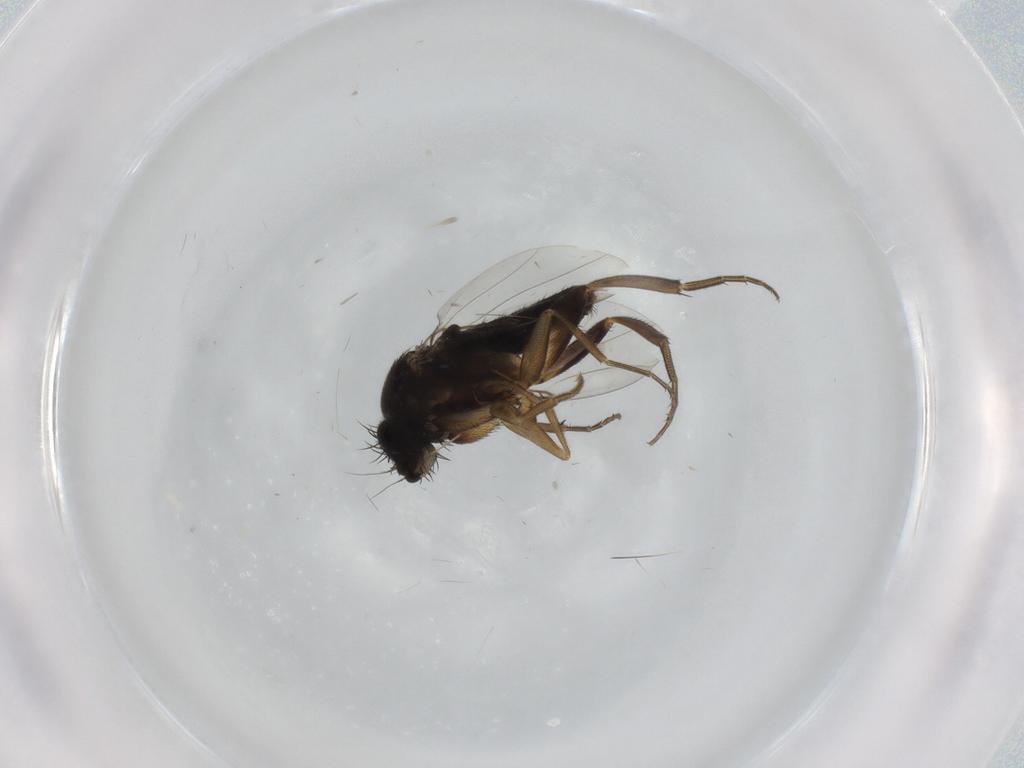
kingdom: Animalia
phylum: Arthropoda
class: Insecta
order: Diptera
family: Phoridae
